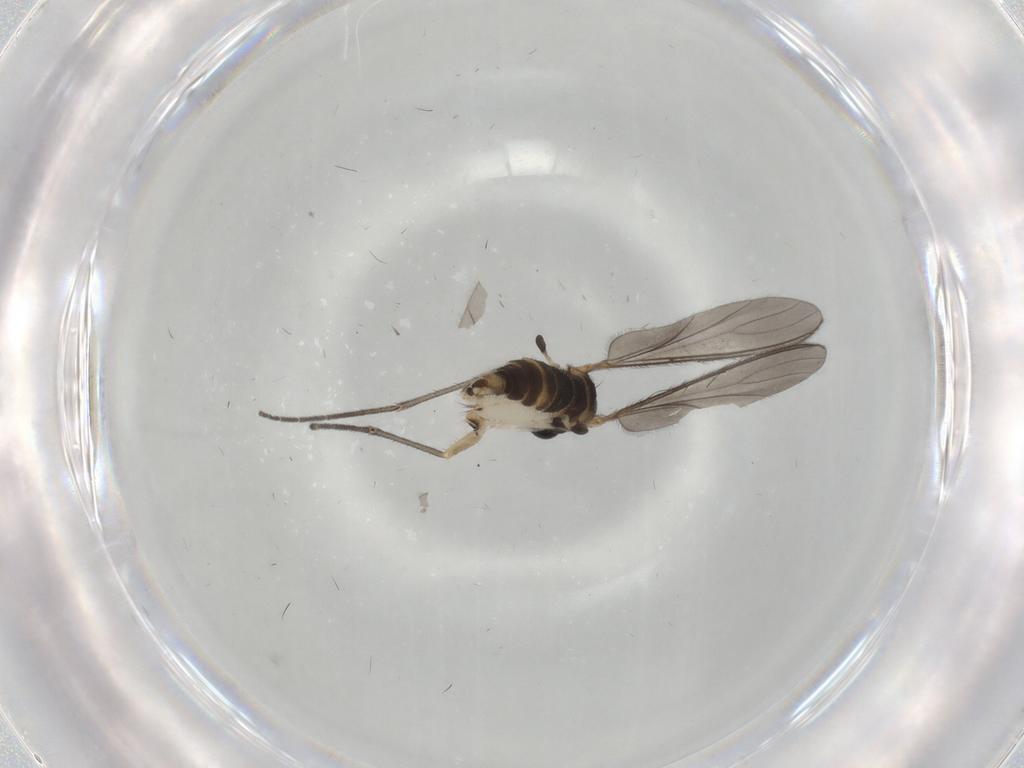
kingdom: Animalia
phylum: Arthropoda
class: Insecta
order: Diptera
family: Sciaridae
